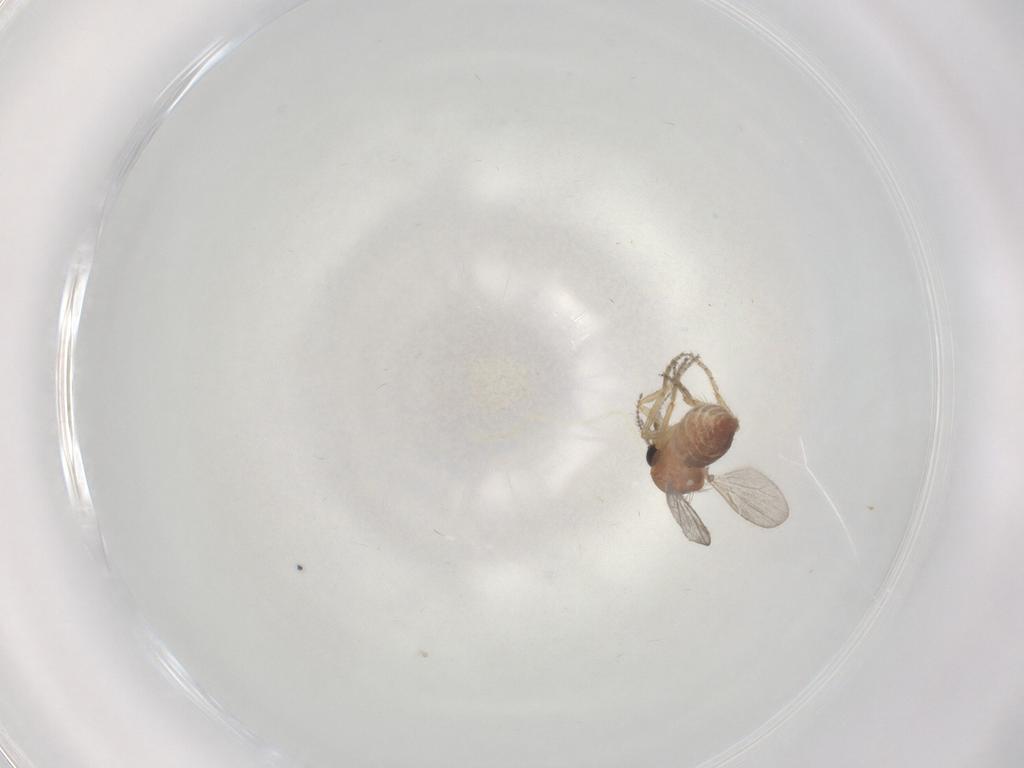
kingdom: Animalia
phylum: Arthropoda
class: Insecta
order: Diptera
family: Ceratopogonidae
